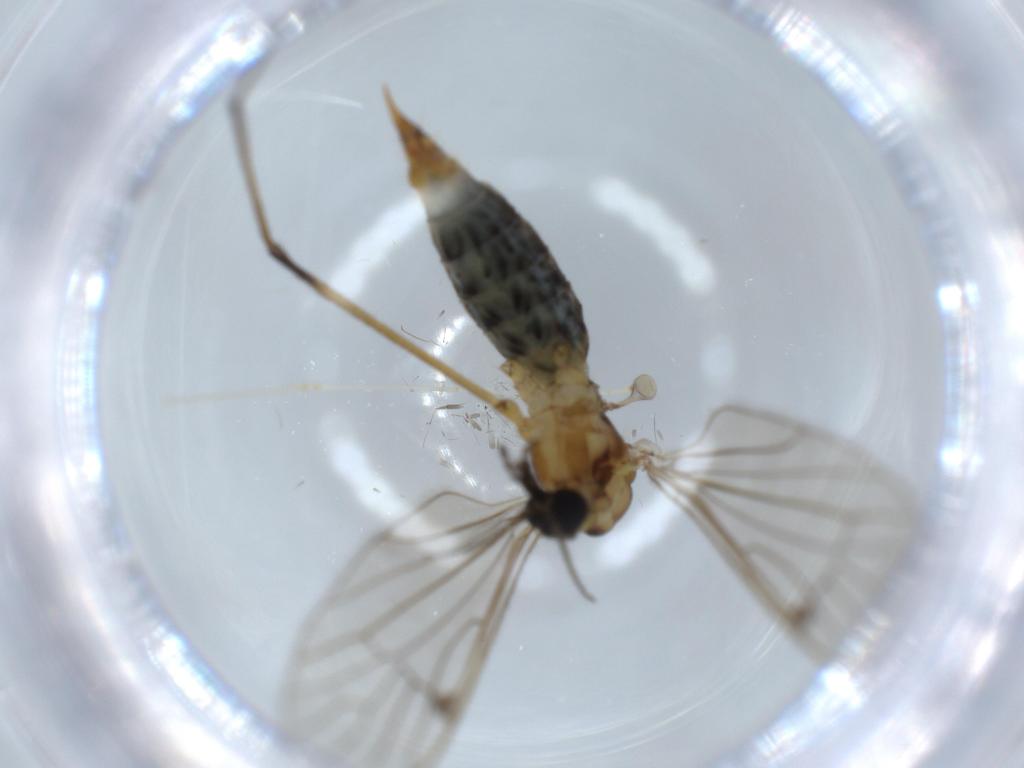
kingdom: Animalia
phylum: Arthropoda
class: Insecta
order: Diptera
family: Limoniidae
